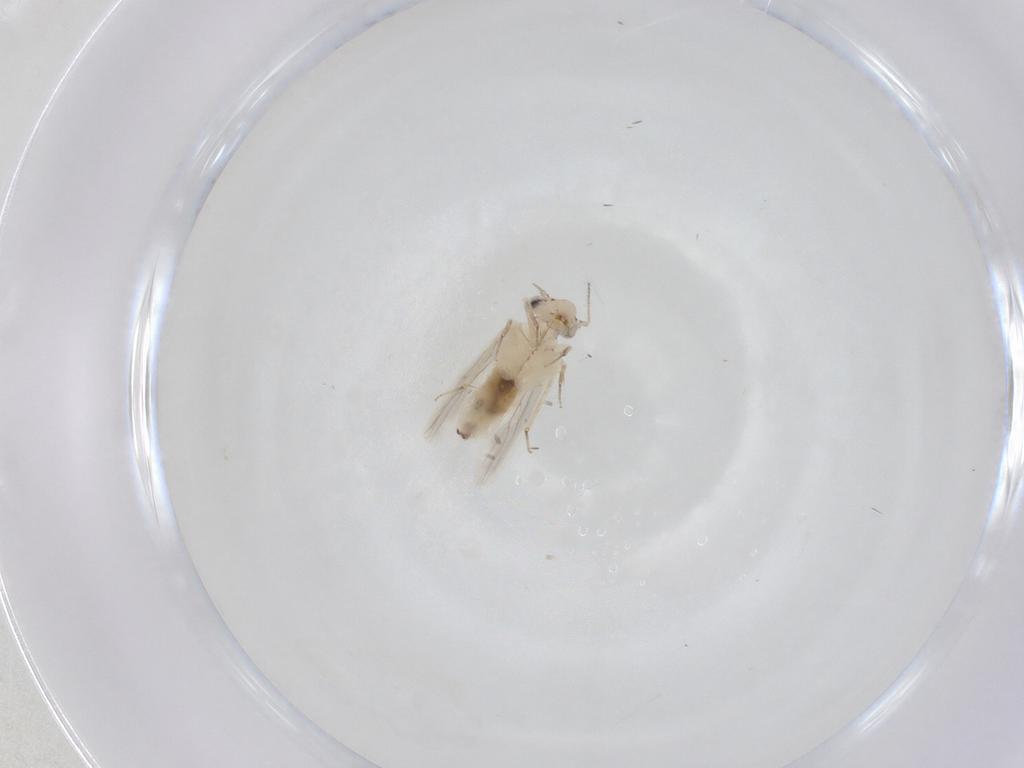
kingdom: Animalia
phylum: Arthropoda
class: Insecta
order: Psocodea
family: Lepidopsocidae
